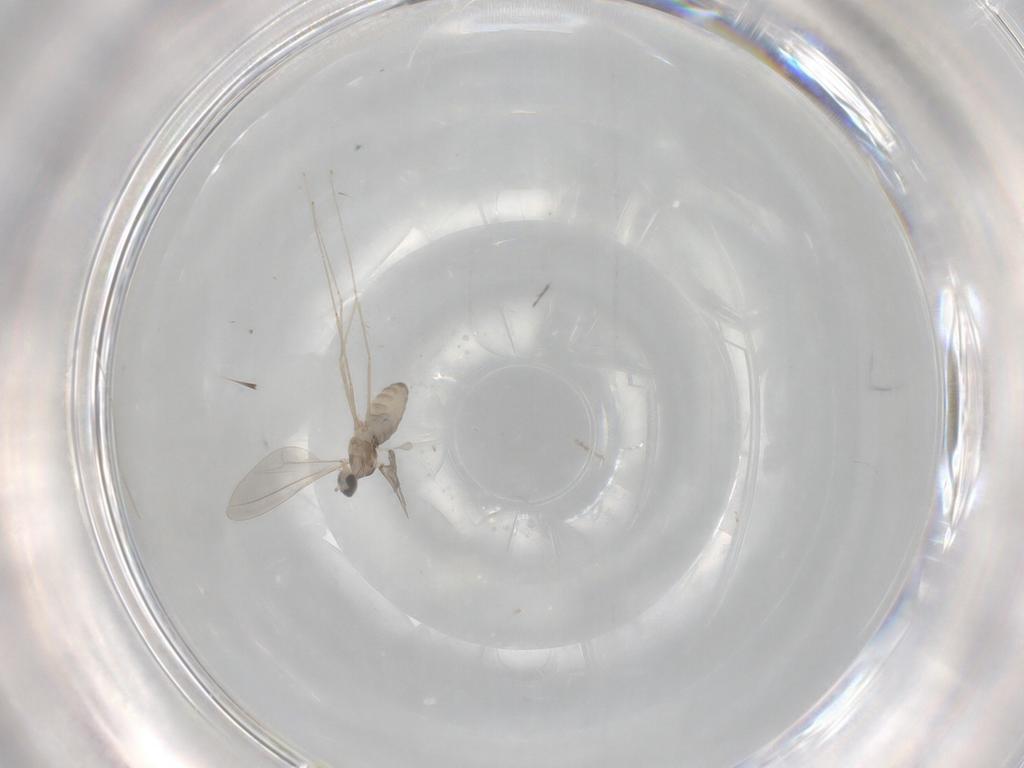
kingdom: Animalia
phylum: Arthropoda
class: Insecta
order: Diptera
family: Cecidomyiidae
